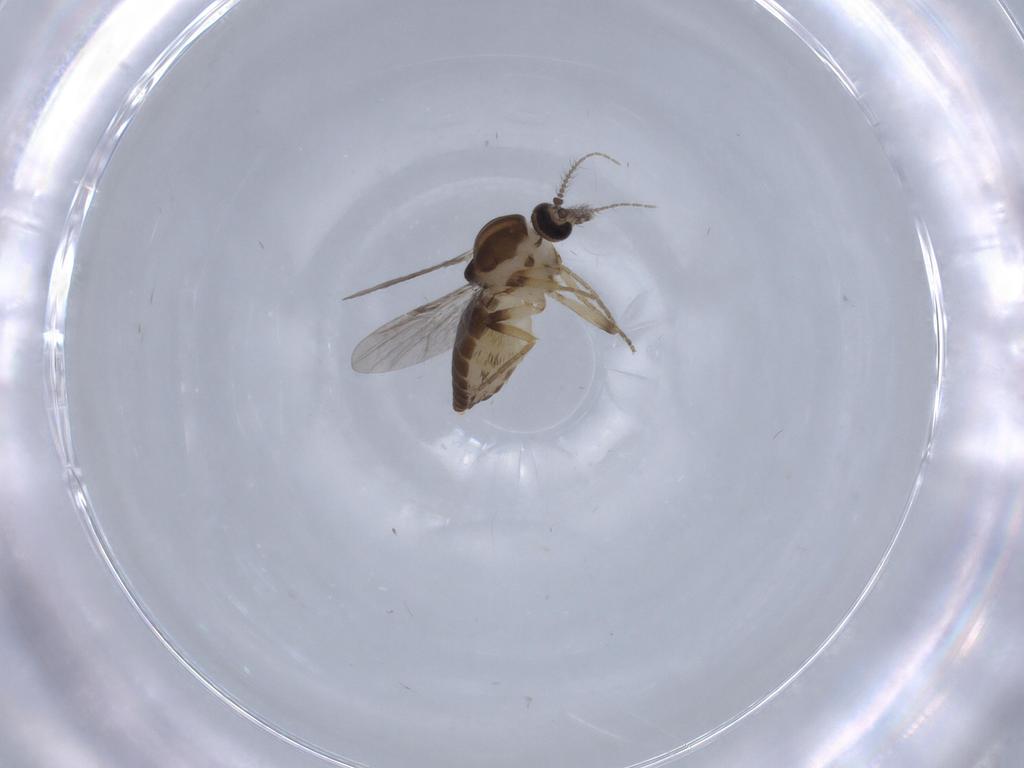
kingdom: Animalia
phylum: Arthropoda
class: Insecta
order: Diptera
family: Ceratopogonidae
